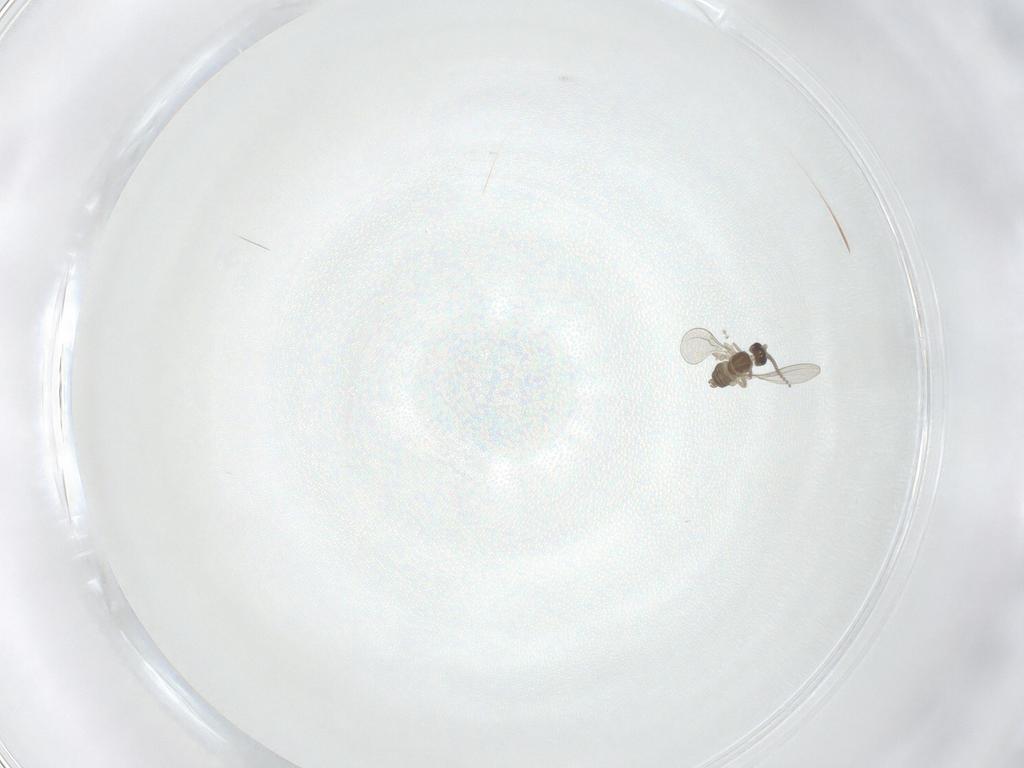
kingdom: Animalia
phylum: Arthropoda
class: Insecta
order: Diptera
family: Cecidomyiidae
